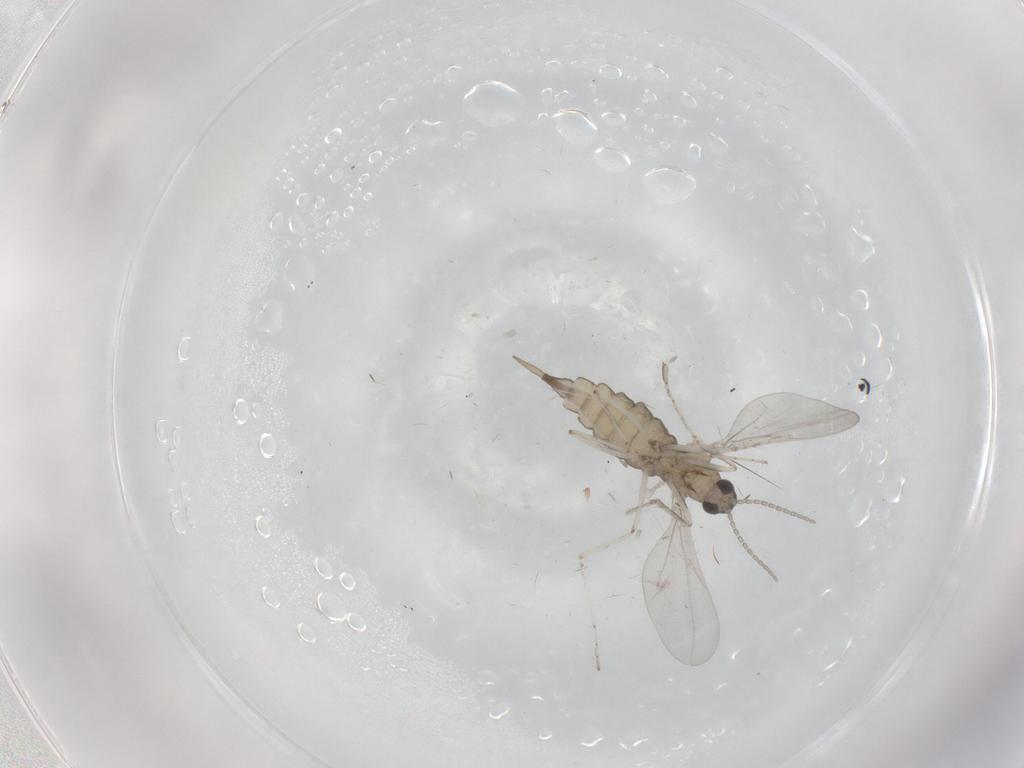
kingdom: Animalia
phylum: Arthropoda
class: Insecta
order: Diptera
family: Ceratopogonidae
